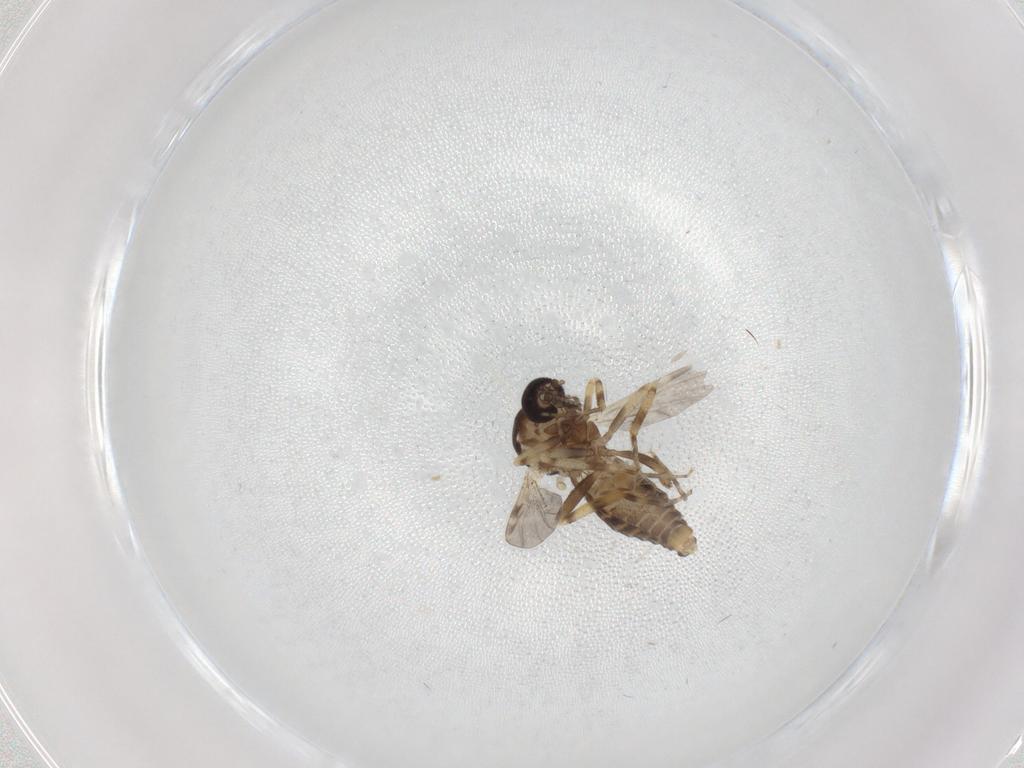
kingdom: Animalia
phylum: Arthropoda
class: Insecta
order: Diptera
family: Ceratopogonidae
